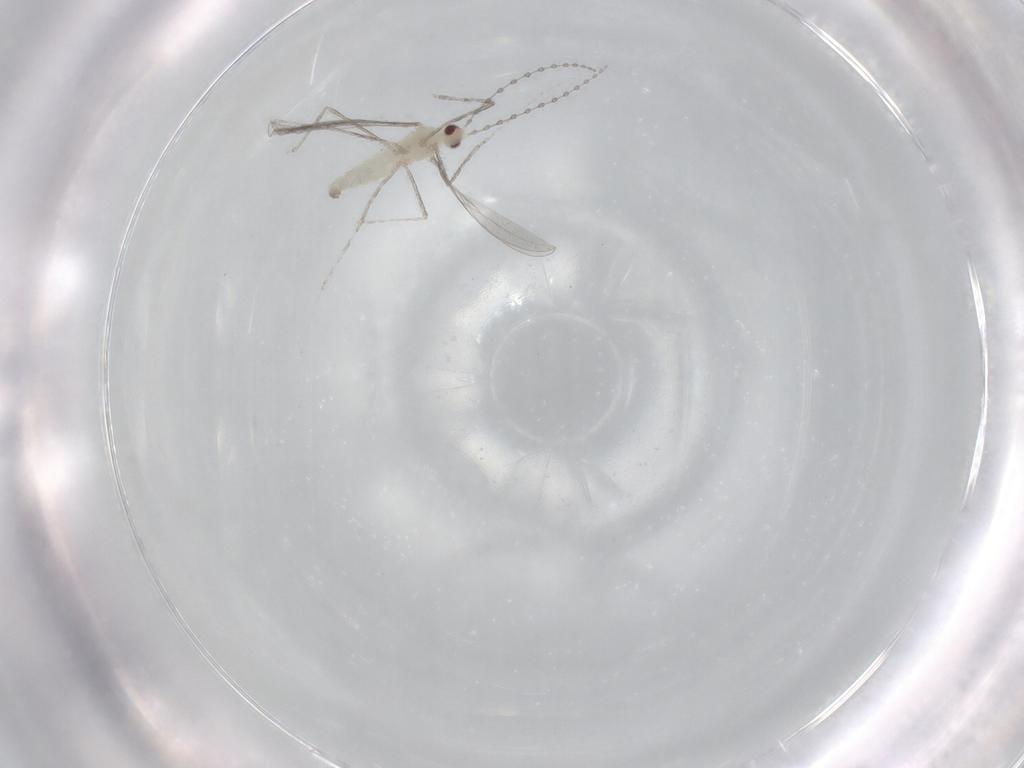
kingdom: Animalia
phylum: Arthropoda
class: Insecta
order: Diptera
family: Cecidomyiidae
